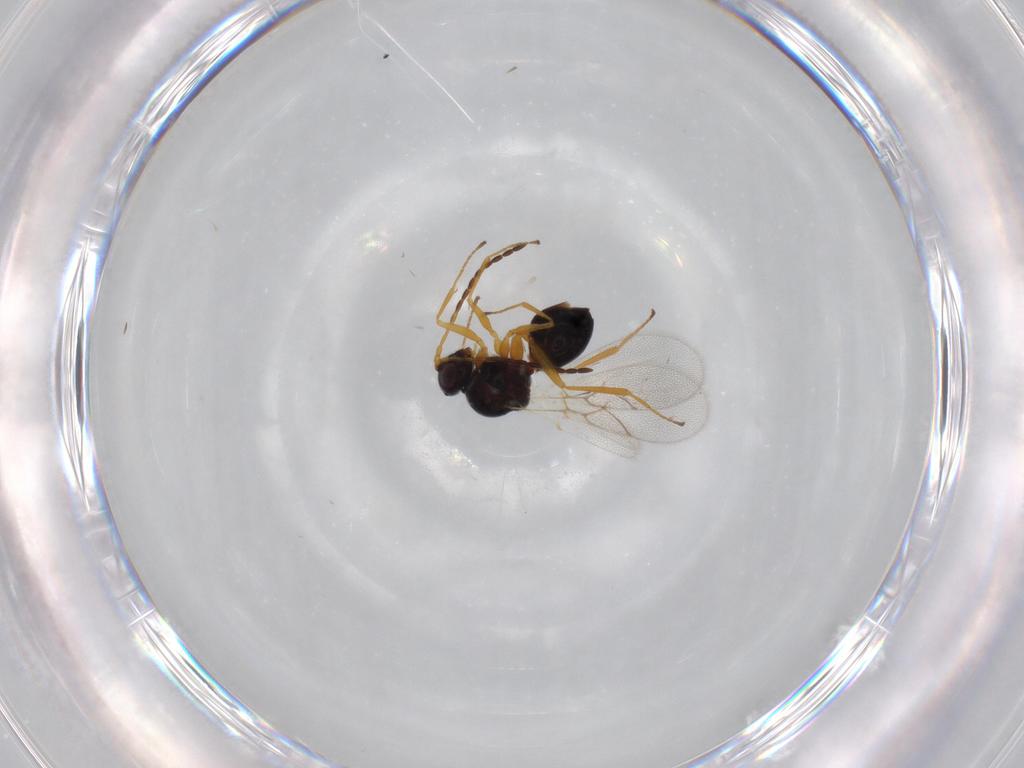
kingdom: Animalia
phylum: Arthropoda
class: Insecta
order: Hymenoptera
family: Figitidae
